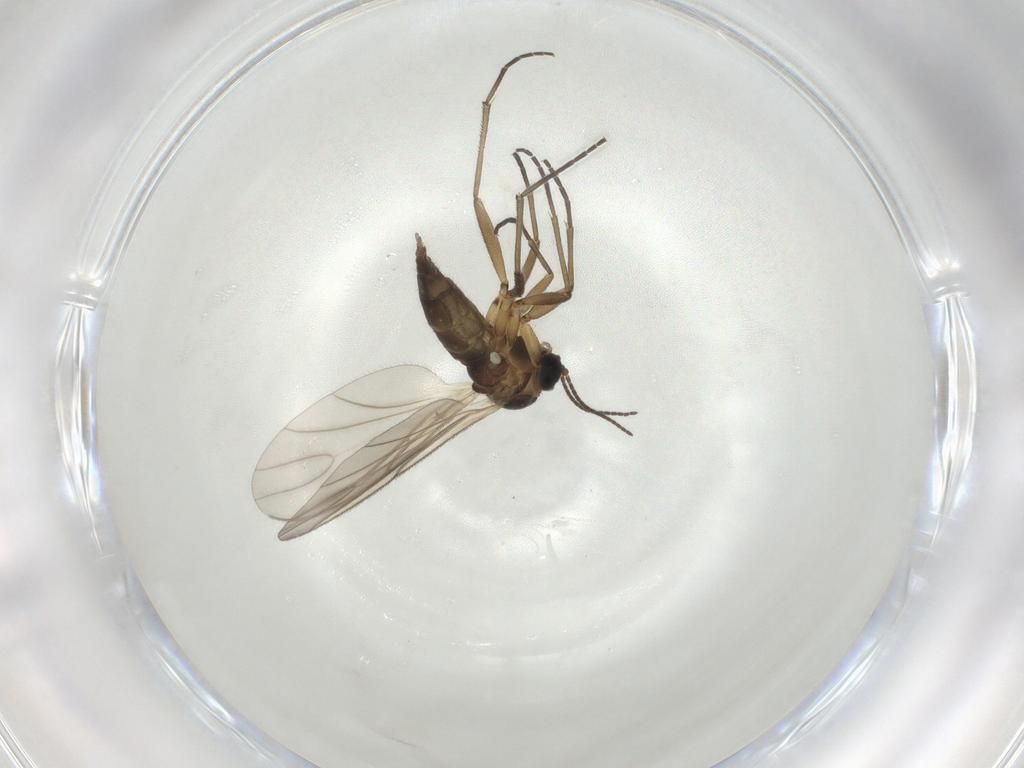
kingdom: Animalia
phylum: Arthropoda
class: Insecta
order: Diptera
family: Chironomidae
